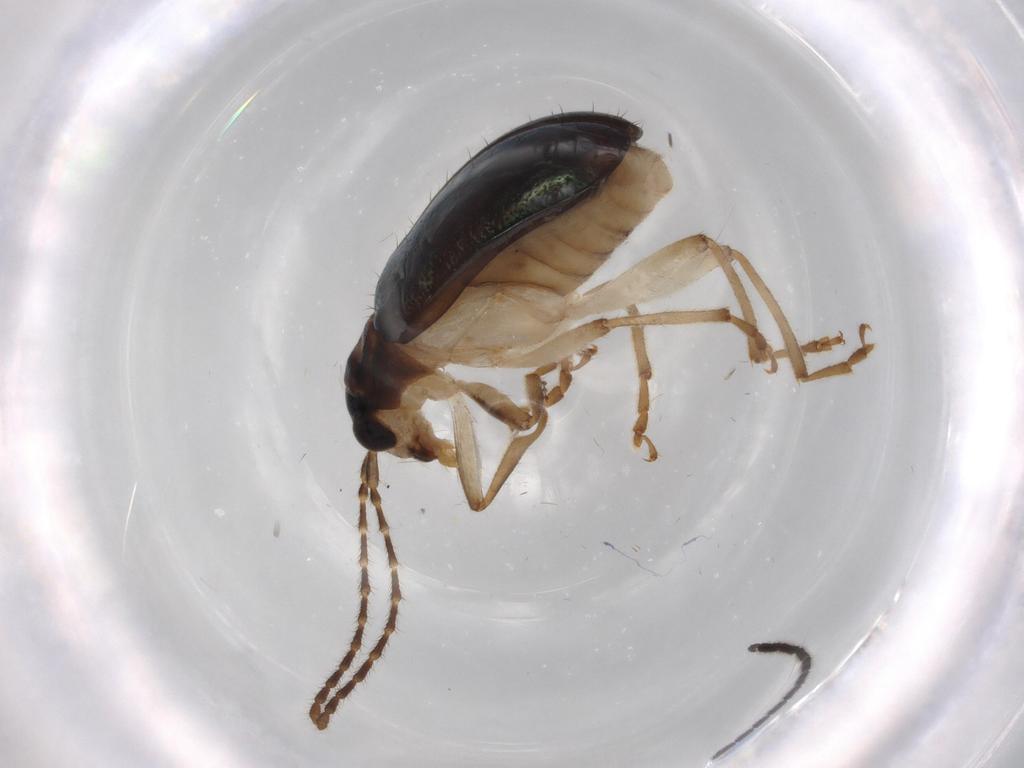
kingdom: Animalia
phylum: Arthropoda
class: Insecta
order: Coleoptera
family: Chrysomelidae
